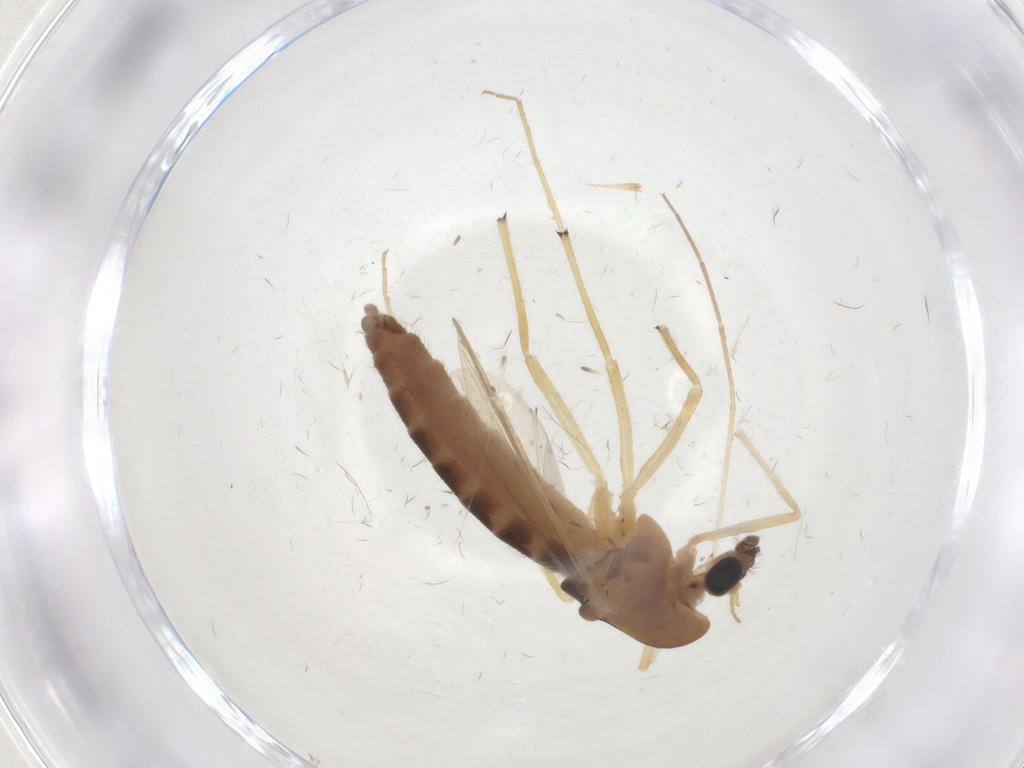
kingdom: Animalia
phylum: Arthropoda
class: Insecta
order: Diptera
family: Chironomidae
